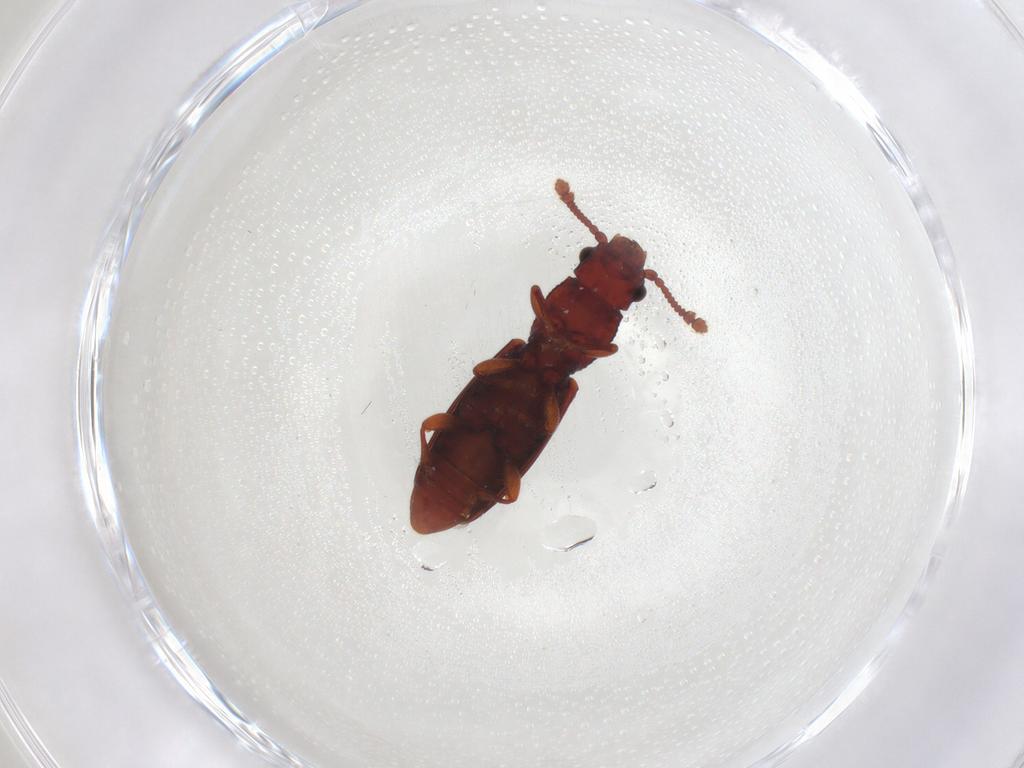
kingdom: Animalia
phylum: Arthropoda
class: Insecta
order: Coleoptera
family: Monotomidae
